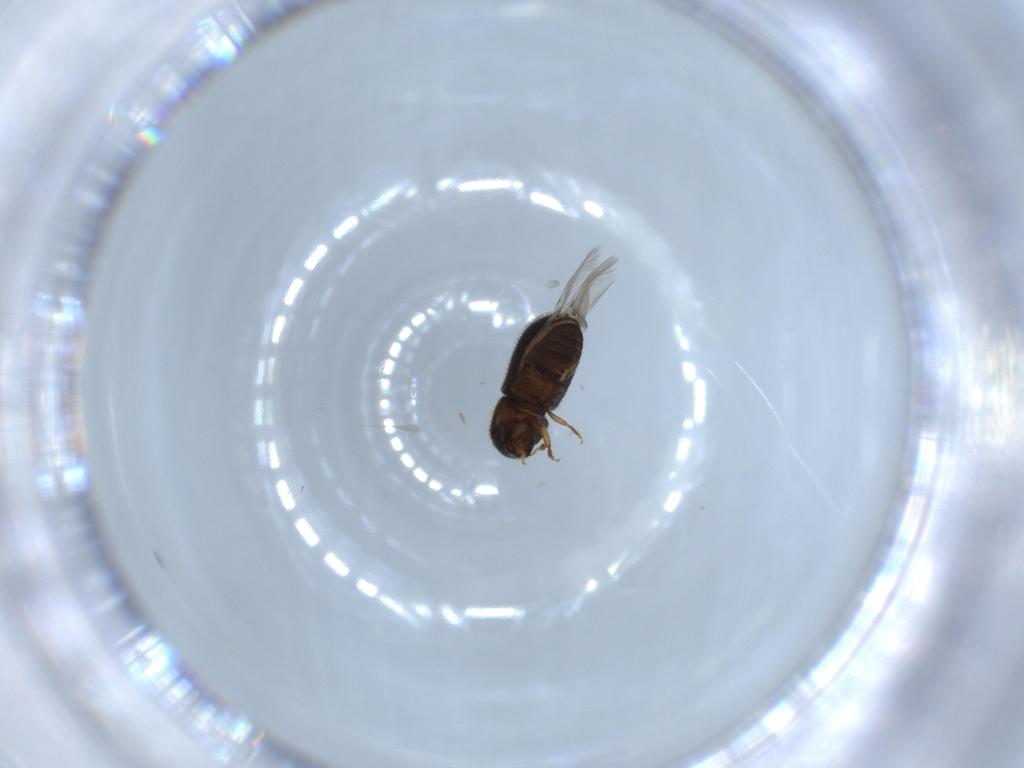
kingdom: Animalia
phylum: Arthropoda
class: Insecta
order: Coleoptera
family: Curculionidae
